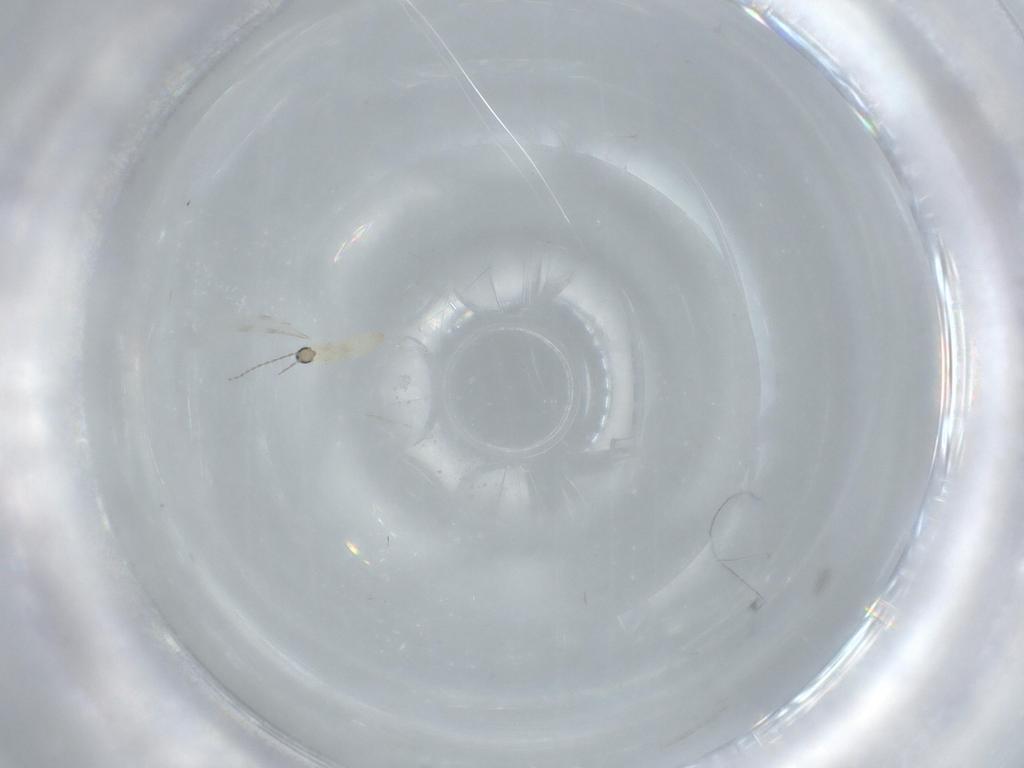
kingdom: Animalia
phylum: Arthropoda
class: Insecta
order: Diptera
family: Cecidomyiidae
